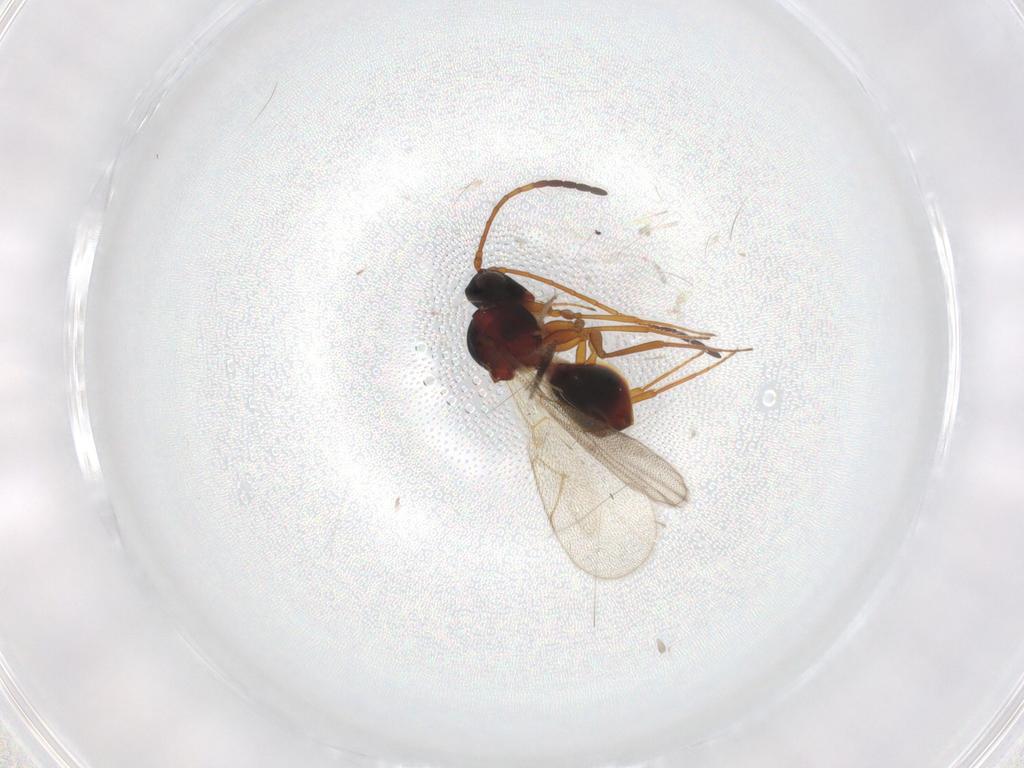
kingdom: Animalia
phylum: Arthropoda
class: Insecta
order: Hymenoptera
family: Figitidae
